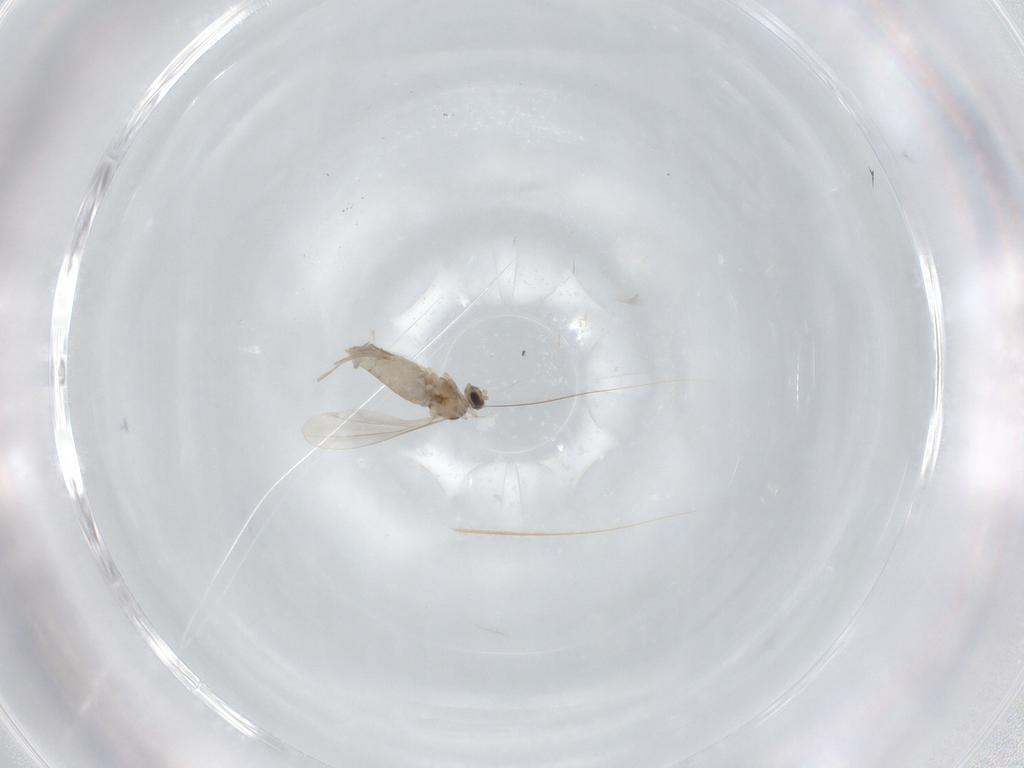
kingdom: Animalia
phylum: Arthropoda
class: Insecta
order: Diptera
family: Cecidomyiidae
